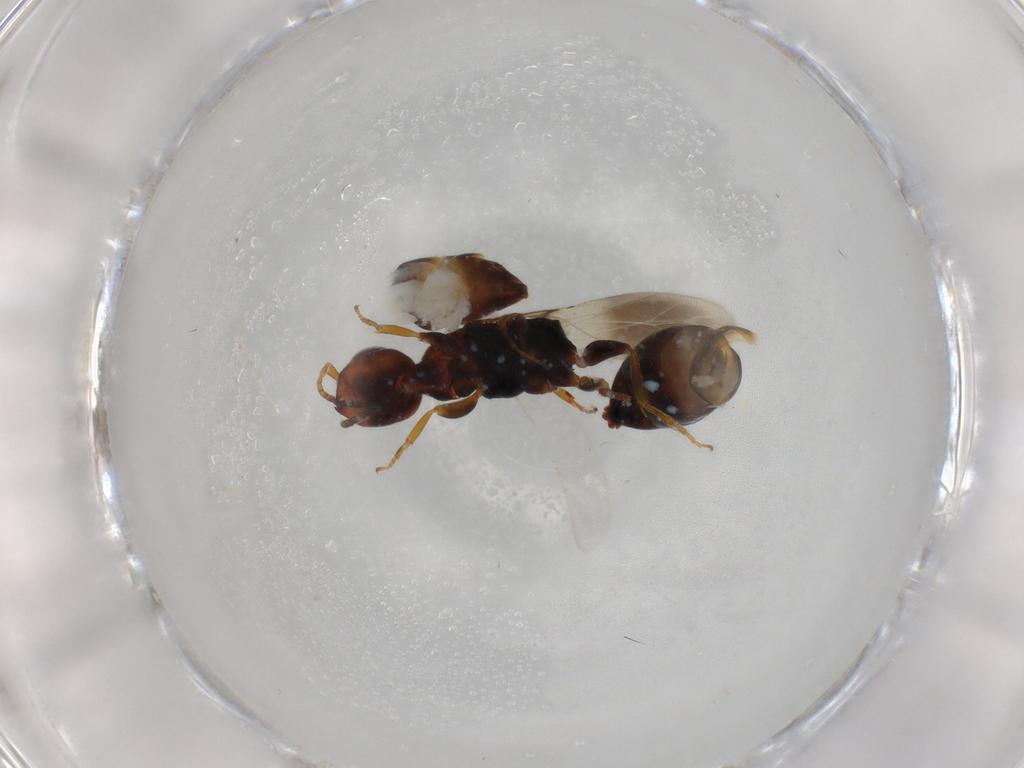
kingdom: Animalia
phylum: Arthropoda
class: Insecta
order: Hymenoptera
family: Bethylidae
